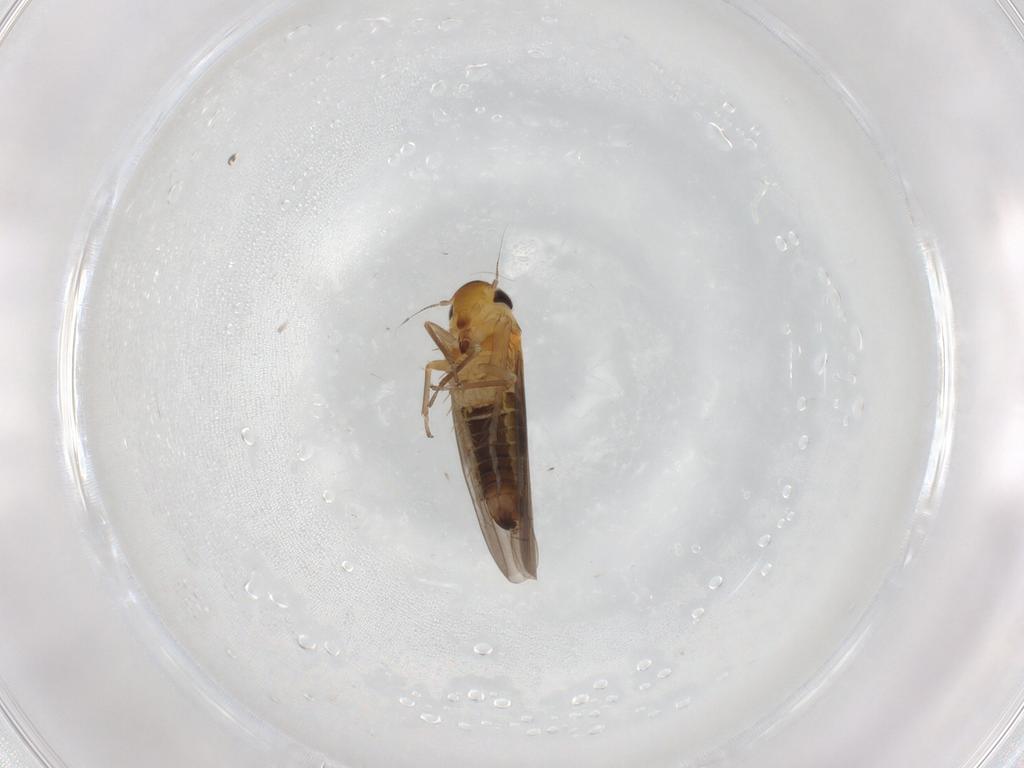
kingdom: Animalia
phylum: Arthropoda
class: Insecta
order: Hemiptera
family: Cicadellidae
